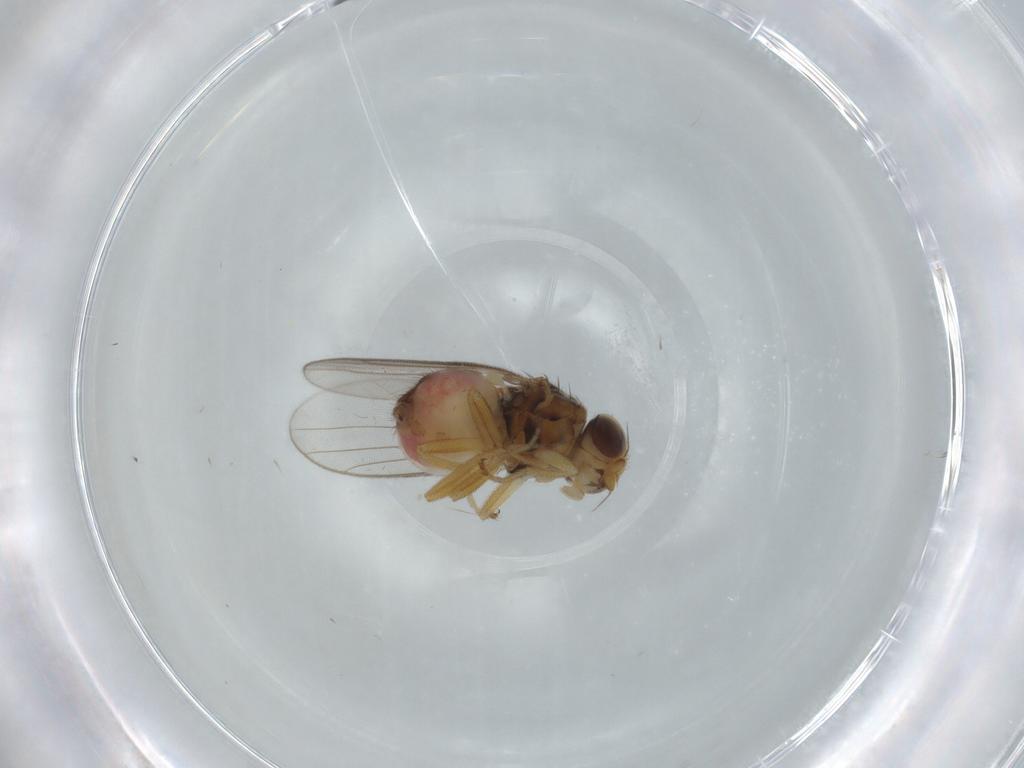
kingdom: Animalia
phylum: Arthropoda
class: Insecta
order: Diptera
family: Chloropidae
